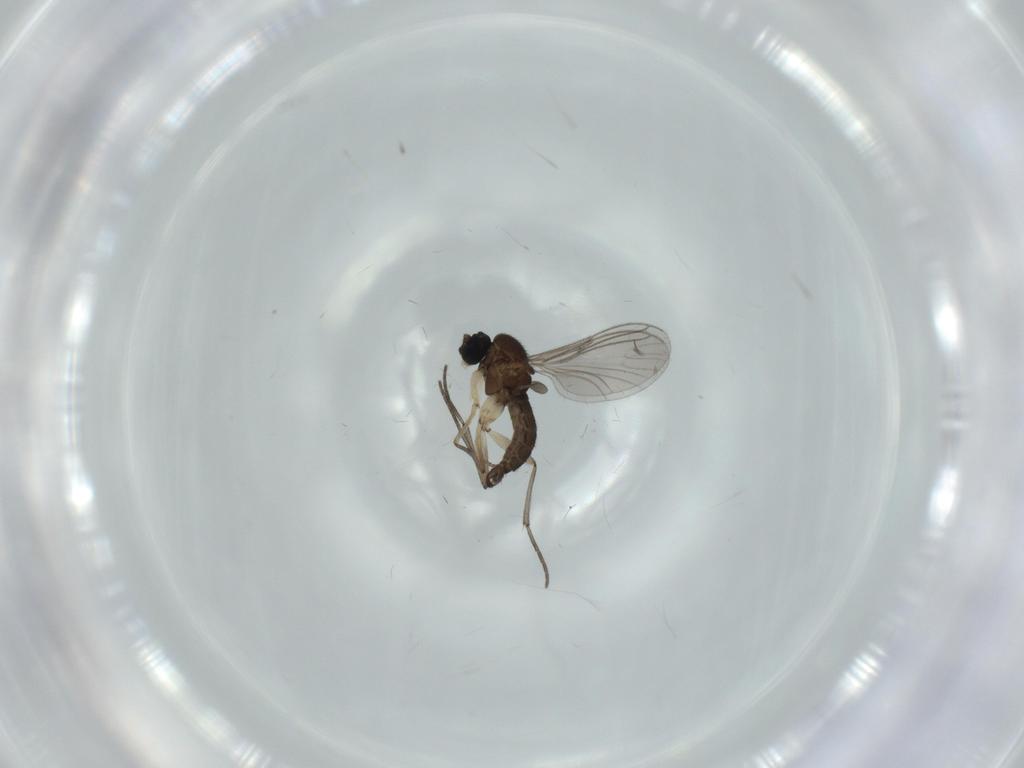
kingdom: Animalia
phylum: Arthropoda
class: Insecta
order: Diptera
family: Sciaridae
